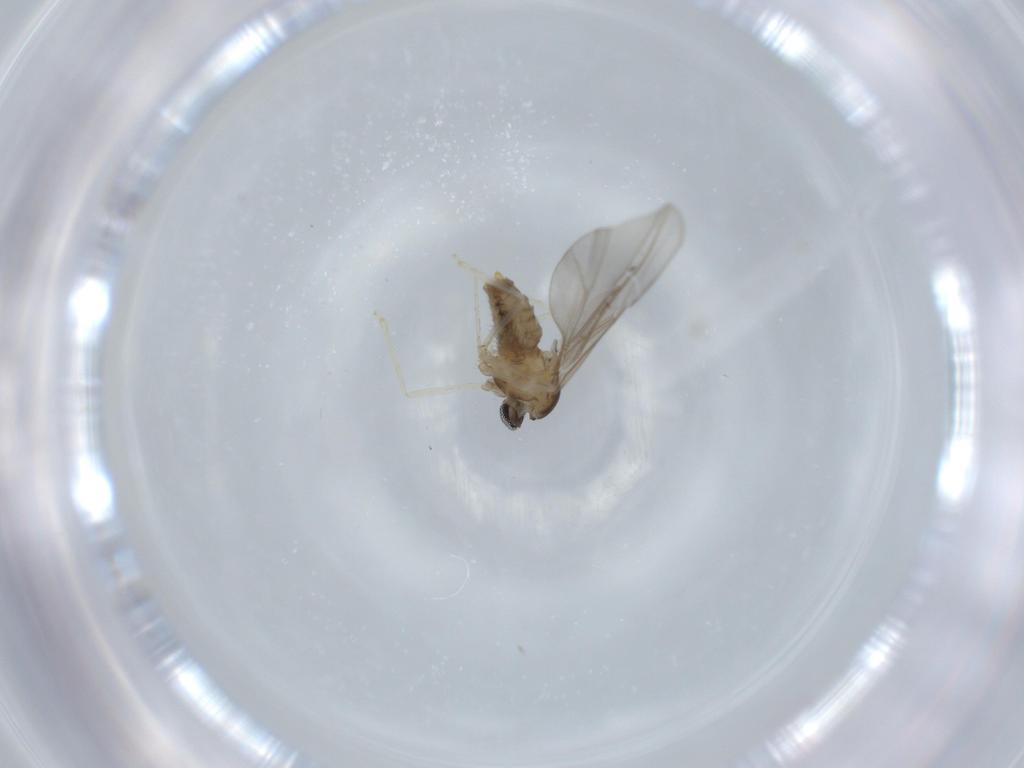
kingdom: Animalia
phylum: Arthropoda
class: Insecta
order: Diptera
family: Cecidomyiidae
